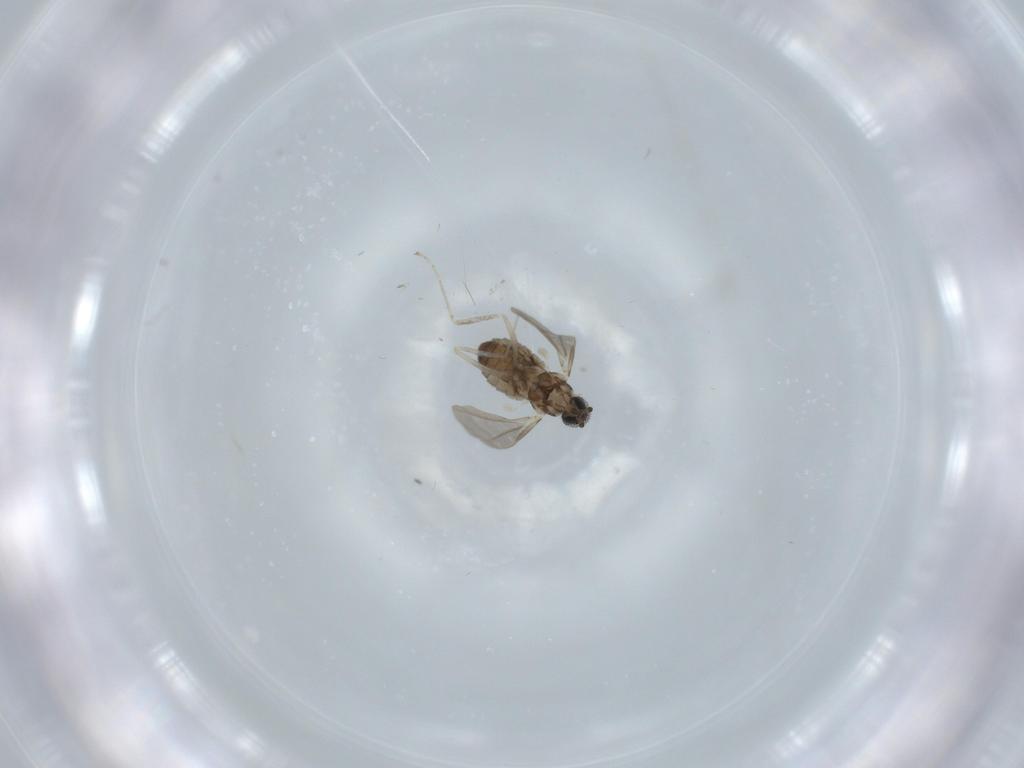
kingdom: Animalia
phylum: Arthropoda
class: Insecta
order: Diptera
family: Cecidomyiidae
